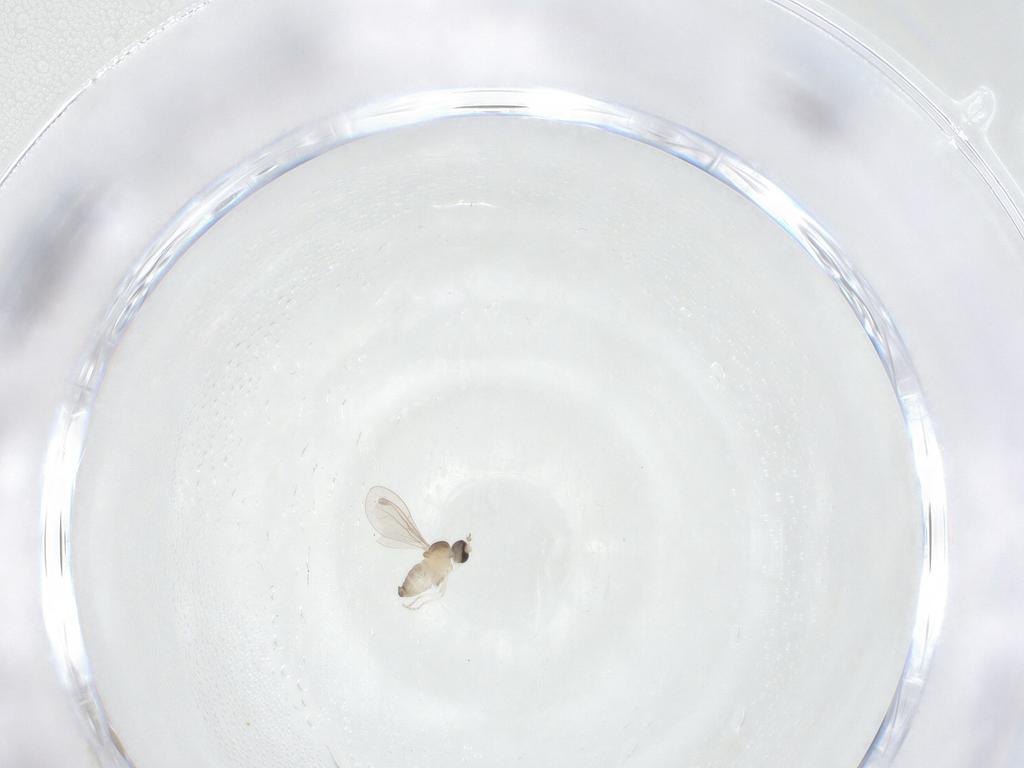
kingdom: Animalia
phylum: Arthropoda
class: Insecta
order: Diptera
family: Cecidomyiidae
